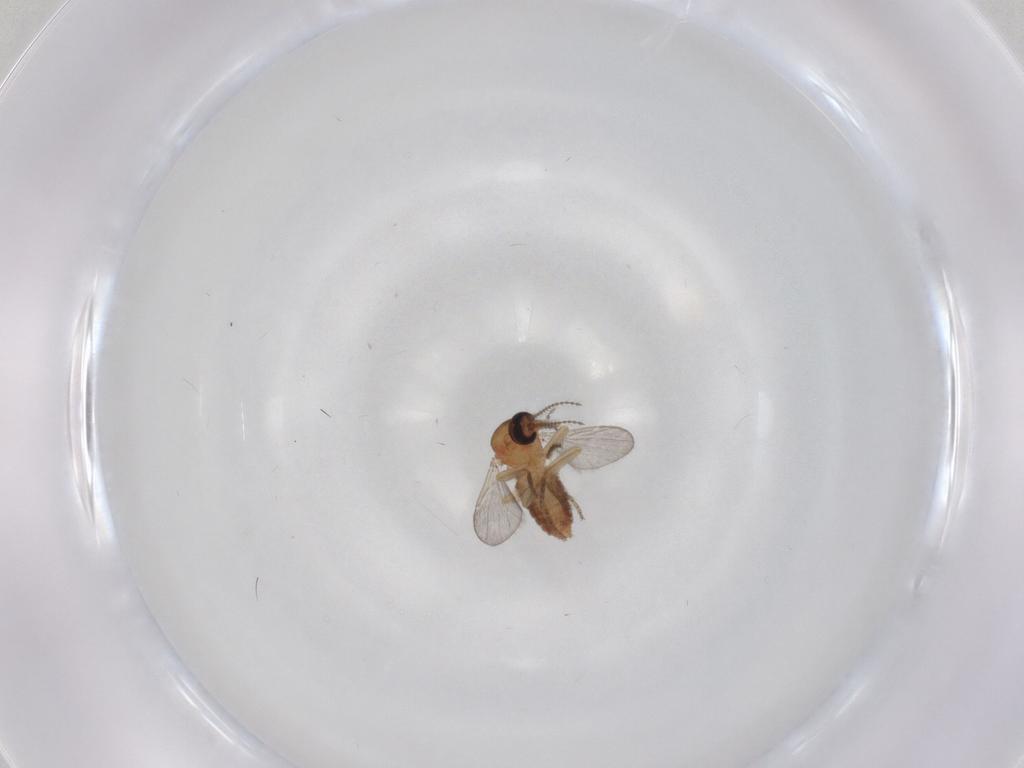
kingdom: Animalia
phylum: Arthropoda
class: Insecta
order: Diptera
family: Ceratopogonidae
